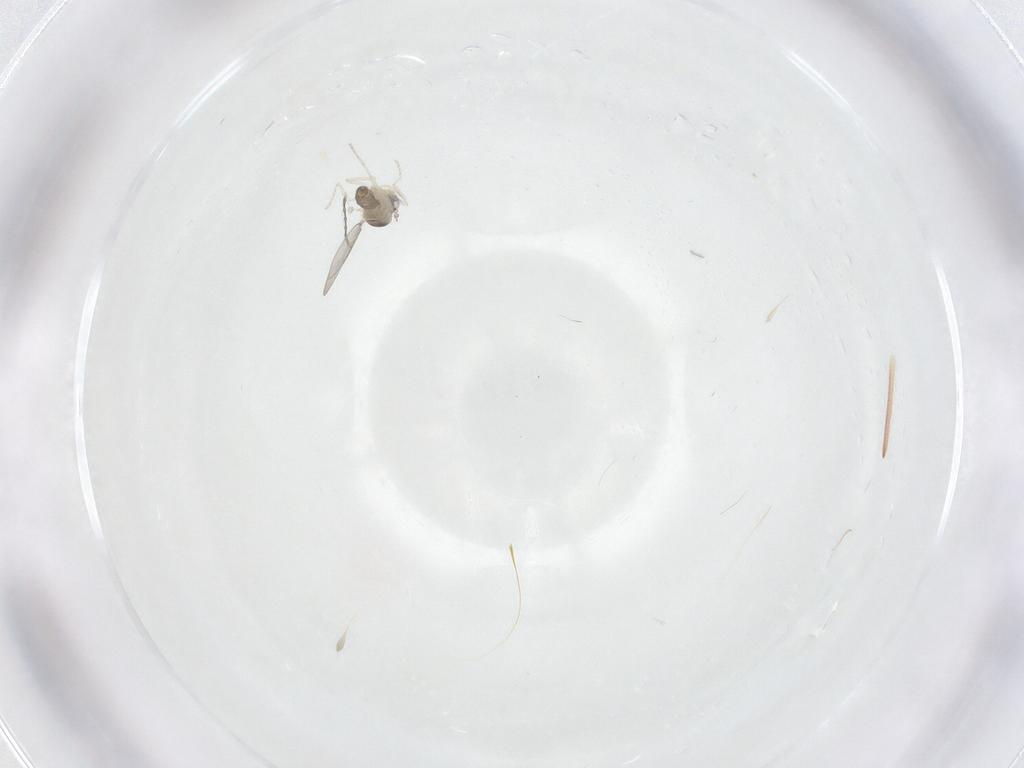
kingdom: Animalia
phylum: Arthropoda
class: Insecta
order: Diptera
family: Cecidomyiidae
